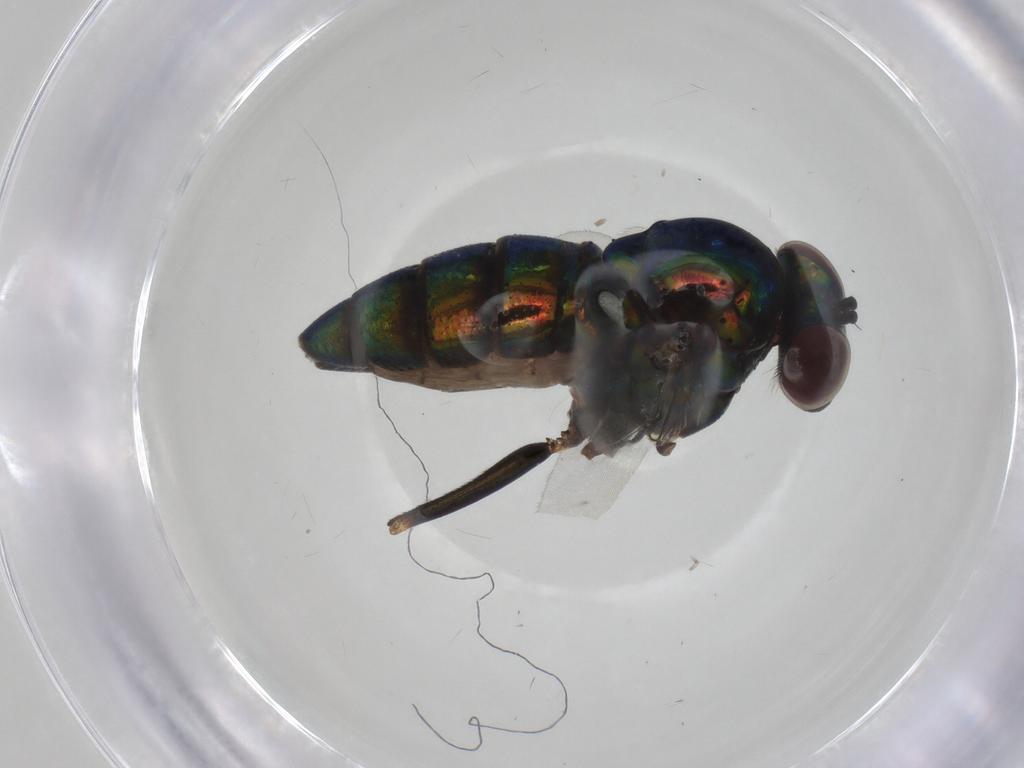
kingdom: Animalia
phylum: Arthropoda
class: Insecta
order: Diptera
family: Dolichopodidae
